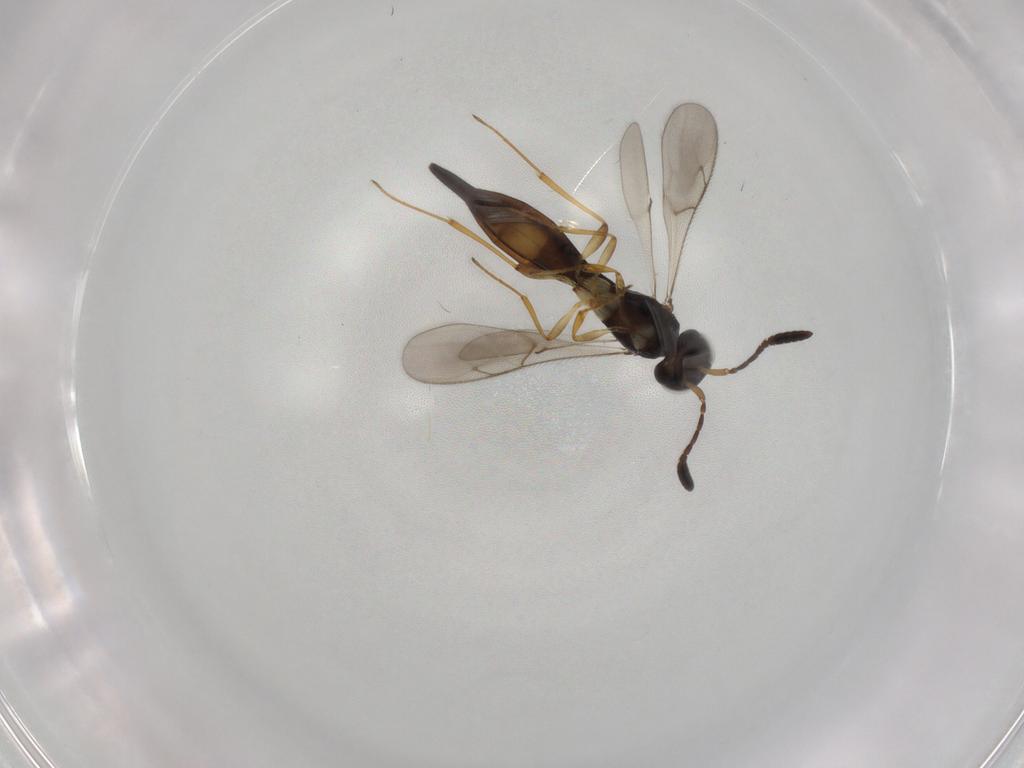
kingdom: Animalia
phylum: Arthropoda
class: Insecta
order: Hymenoptera
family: Scelionidae
